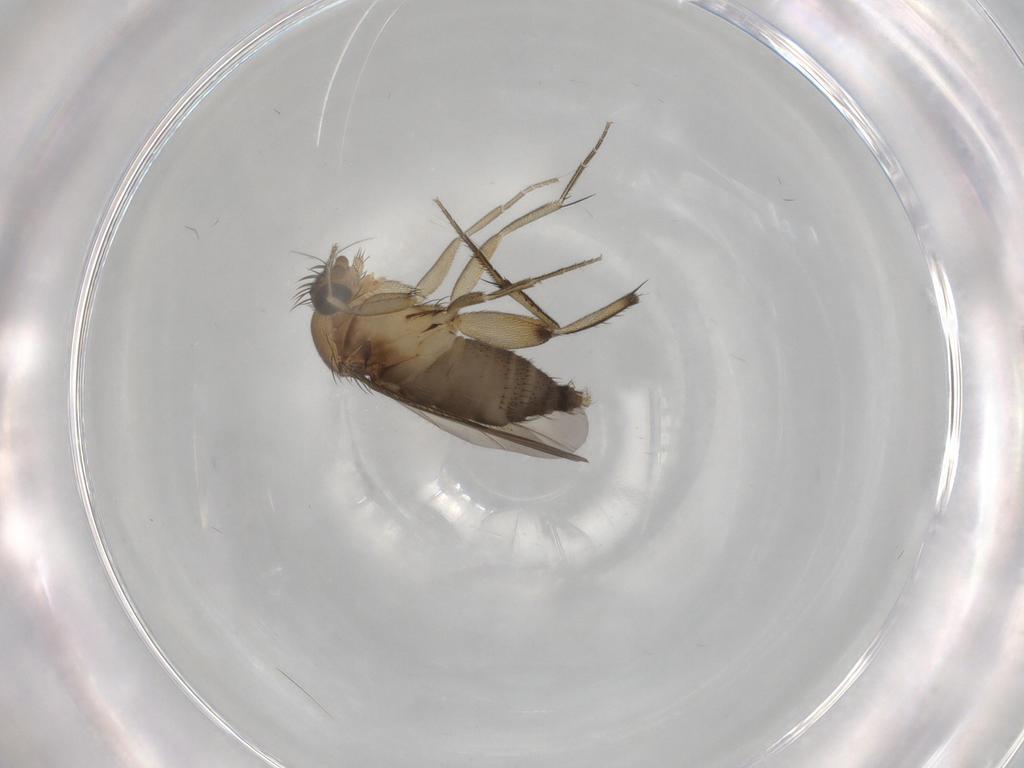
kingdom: Animalia
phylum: Arthropoda
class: Insecta
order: Diptera
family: Phoridae
